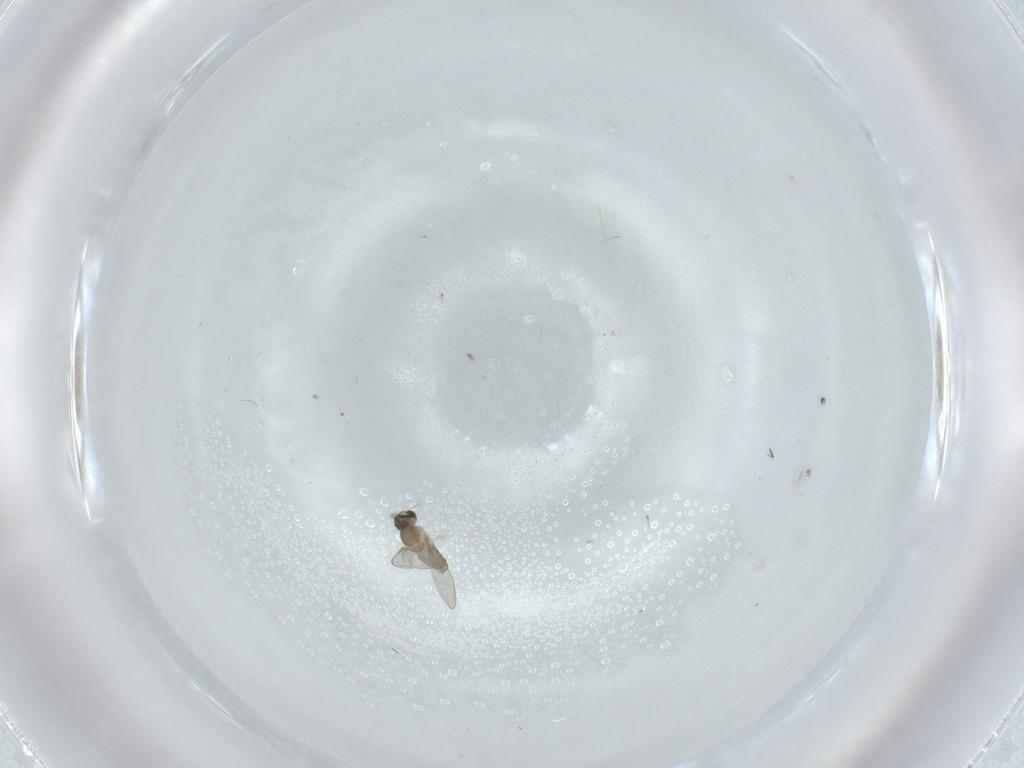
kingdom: Animalia
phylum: Arthropoda
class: Insecta
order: Diptera
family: Cecidomyiidae
